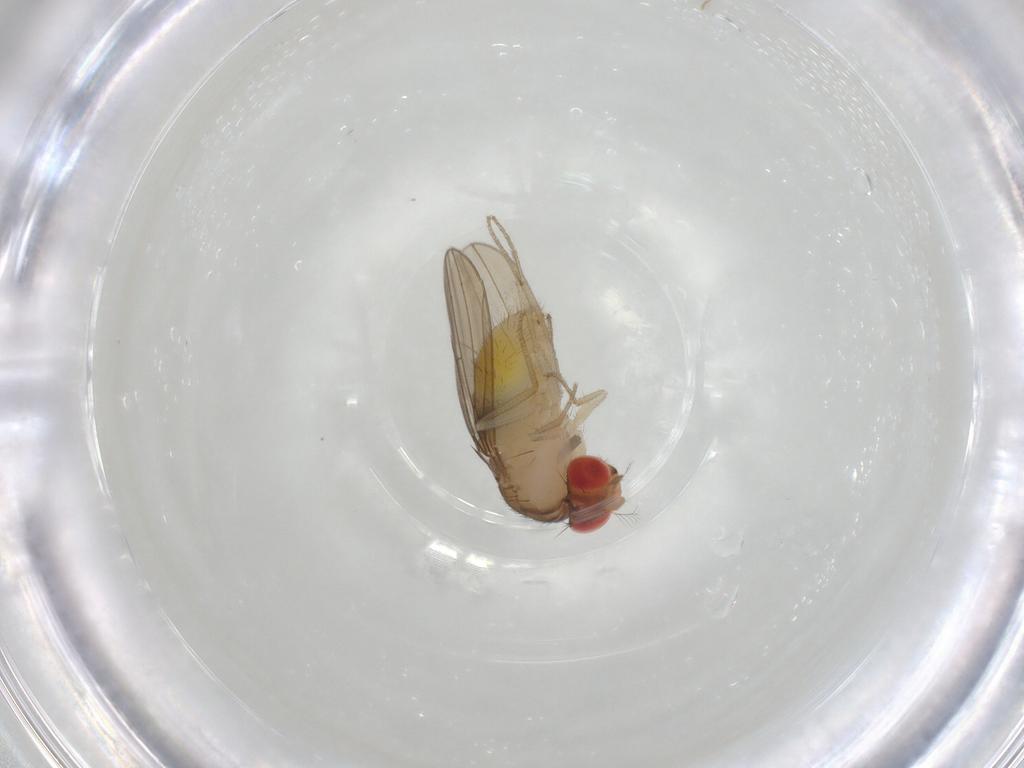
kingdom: Animalia
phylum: Arthropoda
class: Insecta
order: Diptera
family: Drosophilidae
